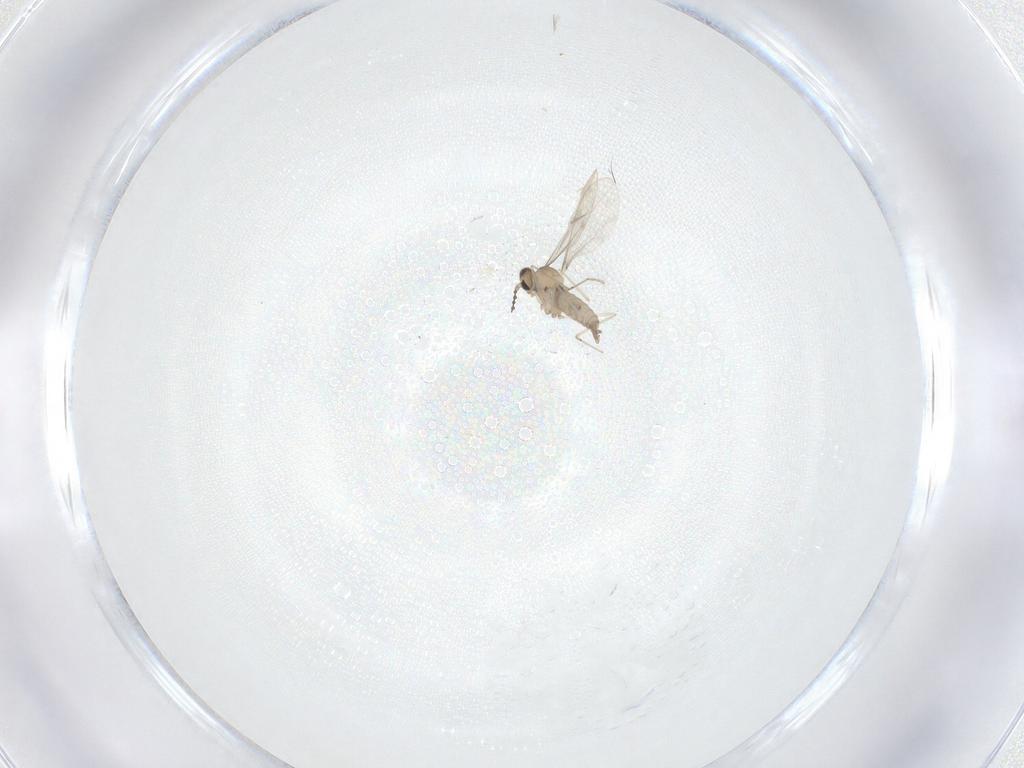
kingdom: Animalia
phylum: Arthropoda
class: Insecta
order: Diptera
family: Cecidomyiidae
